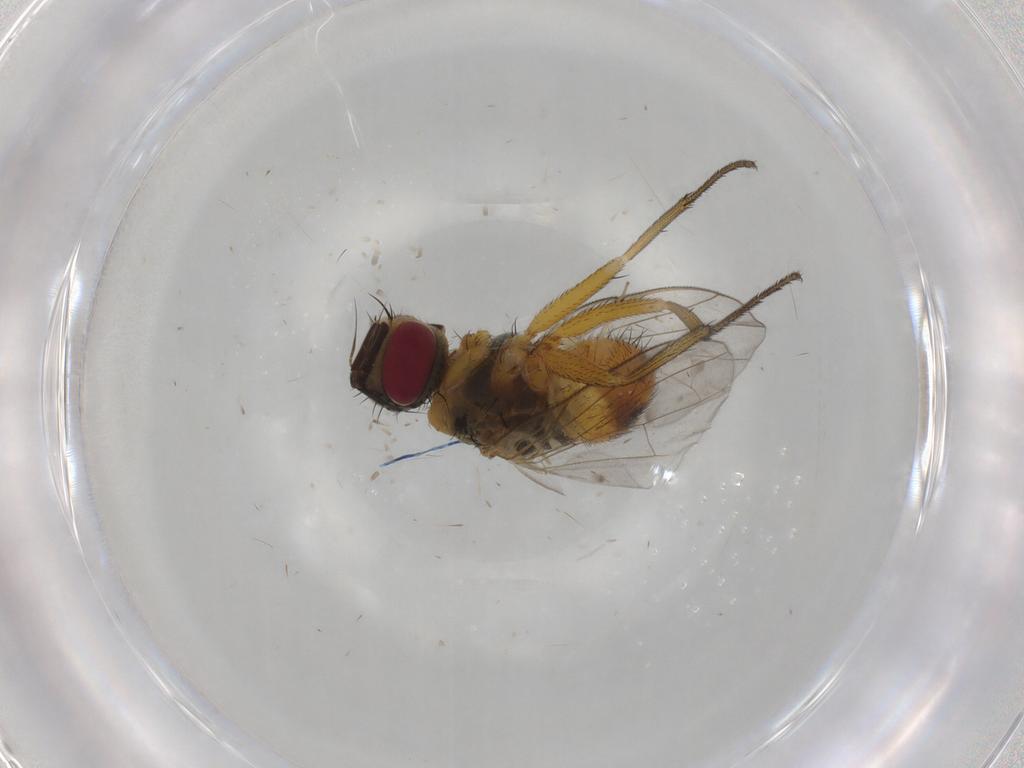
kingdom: Animalia
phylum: Arthropoda
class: Insecta
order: Diptera
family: Muscidae
